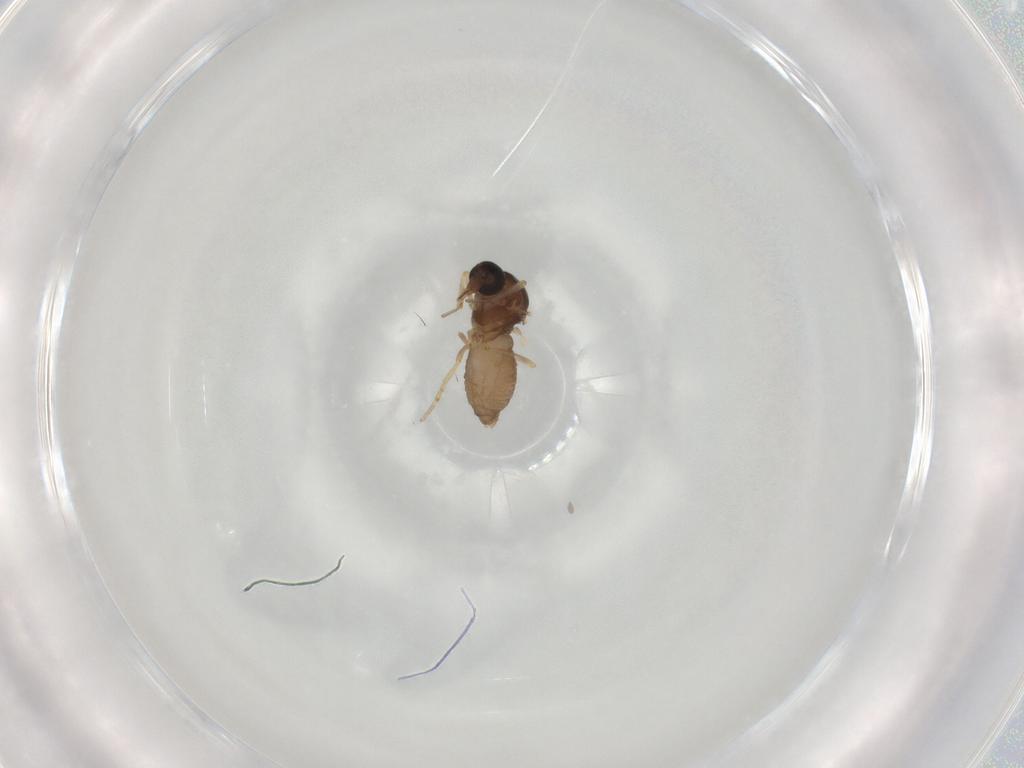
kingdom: Animalia
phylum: Arthropoda
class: Insecta
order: Diptera
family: Ceratopogonidae
